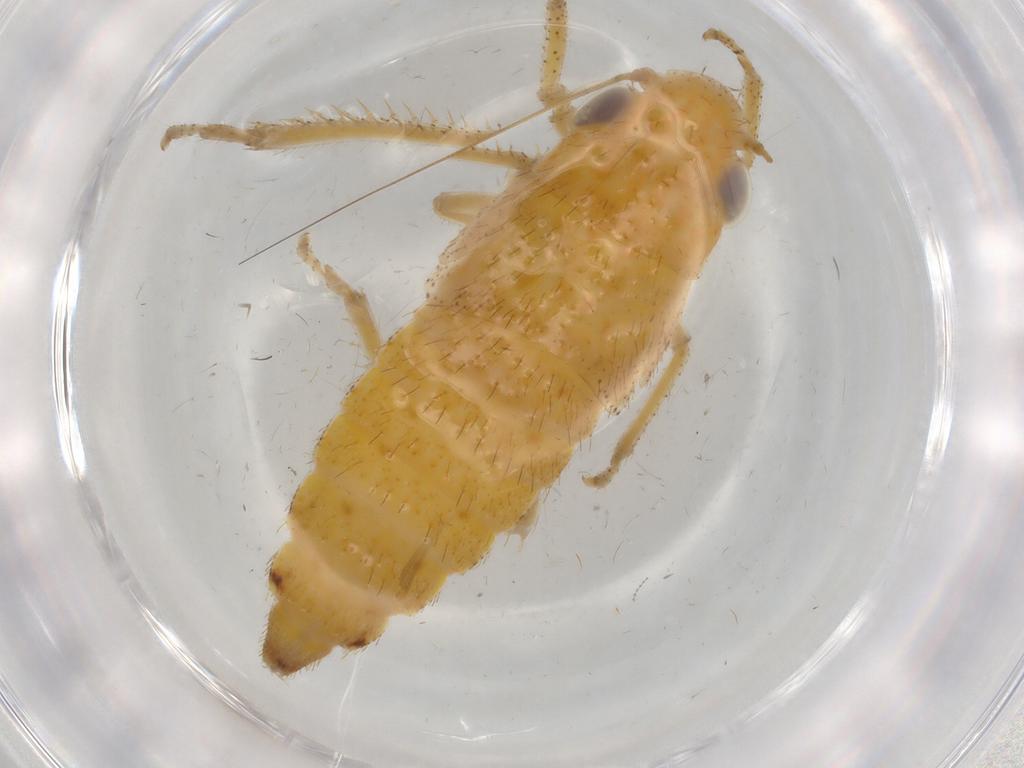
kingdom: Animalia
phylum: Arthropoda
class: Insecta
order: Hemiptera
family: Cicadellidae
